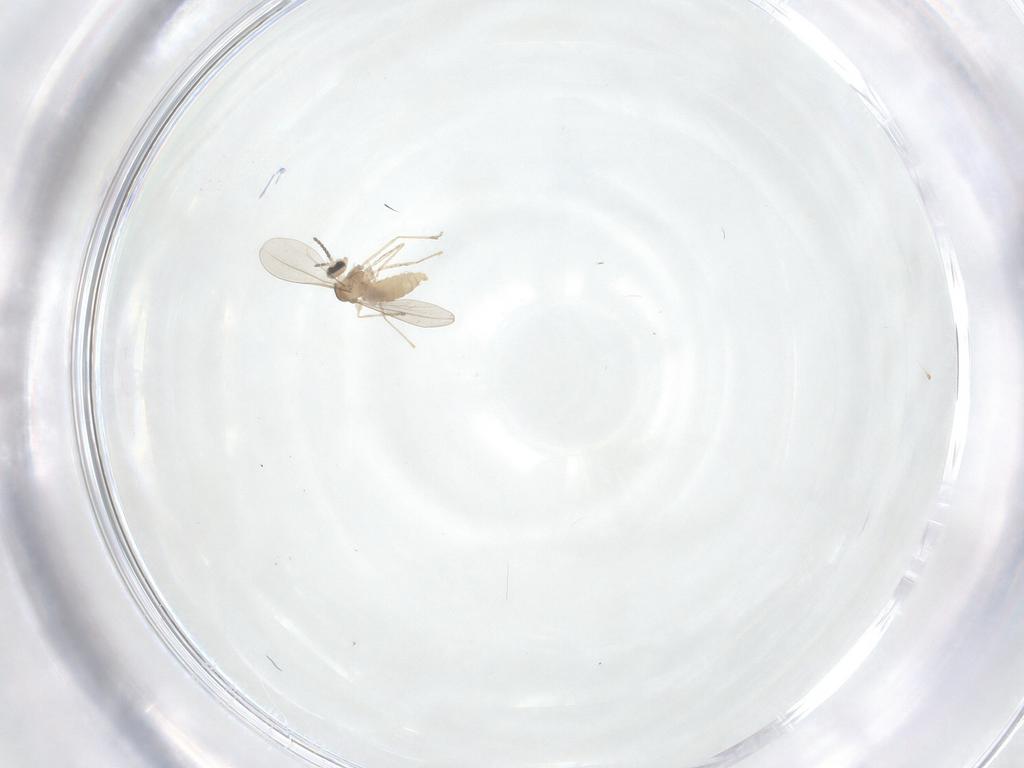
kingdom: Animalia
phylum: Arthropoda
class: Insecta
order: Diptera
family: Cecidomyiidae
